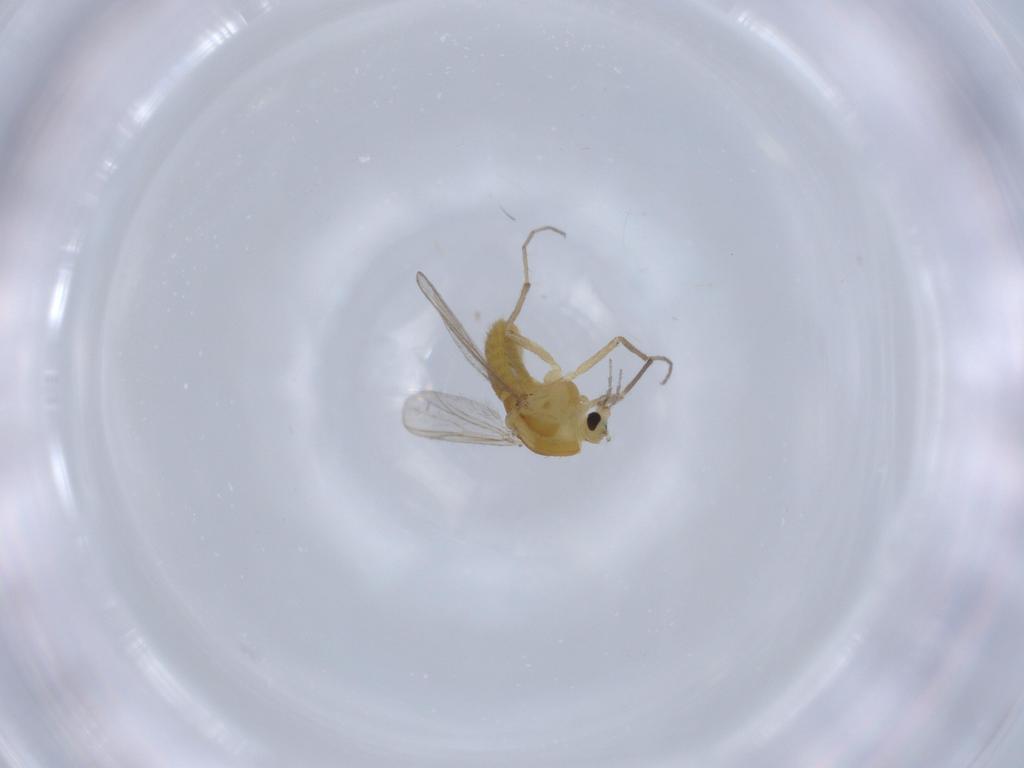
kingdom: Animalia
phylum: Arthropoda
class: Insecta
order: Diptera
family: Chironomidae
